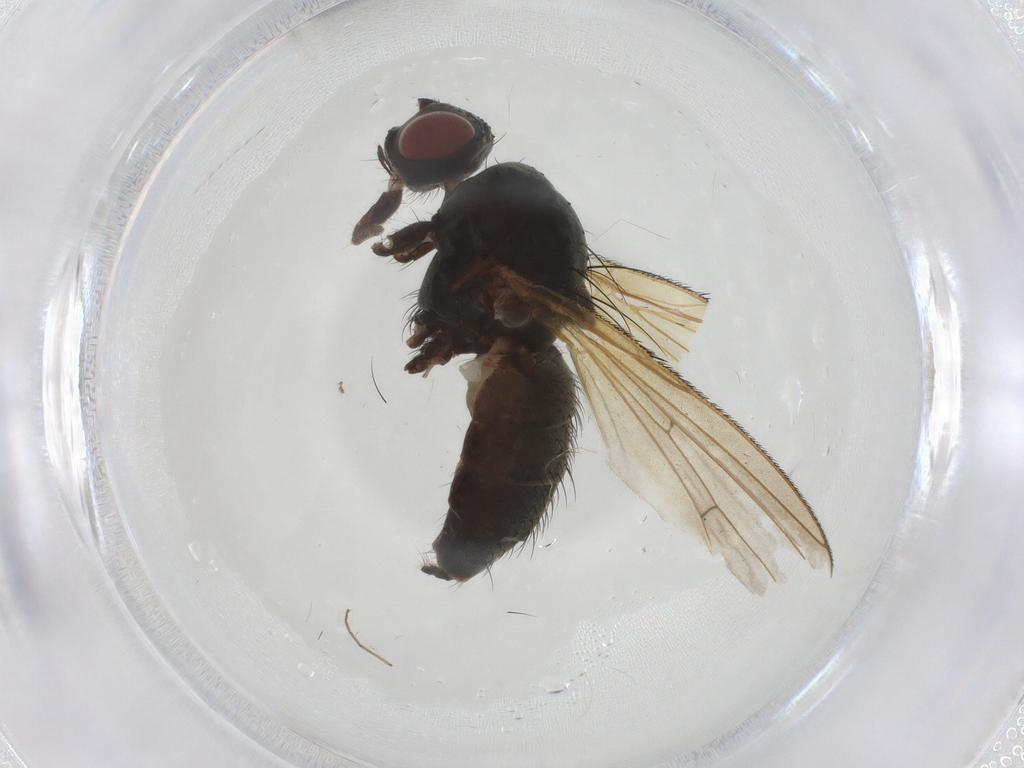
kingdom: Animalia
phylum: Arthropoda
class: Insecta
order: Diptera
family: Anthomyiidae
